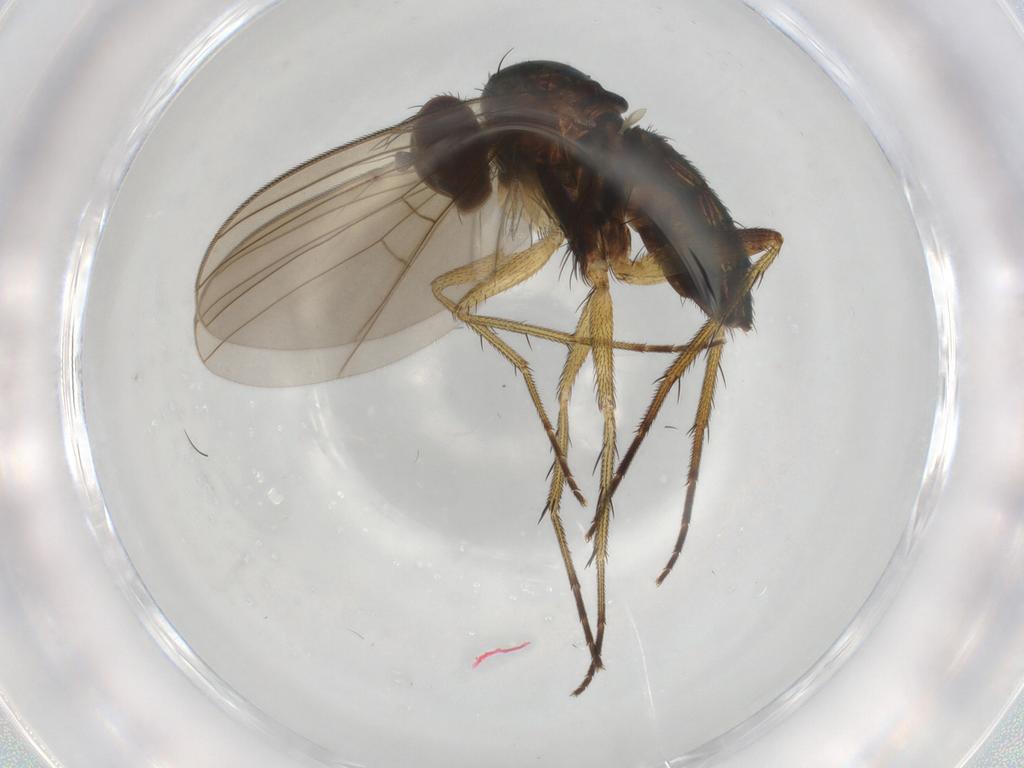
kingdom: Animalia
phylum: Arthropoda
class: Insecta
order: Diptera
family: Dolichopodidae
